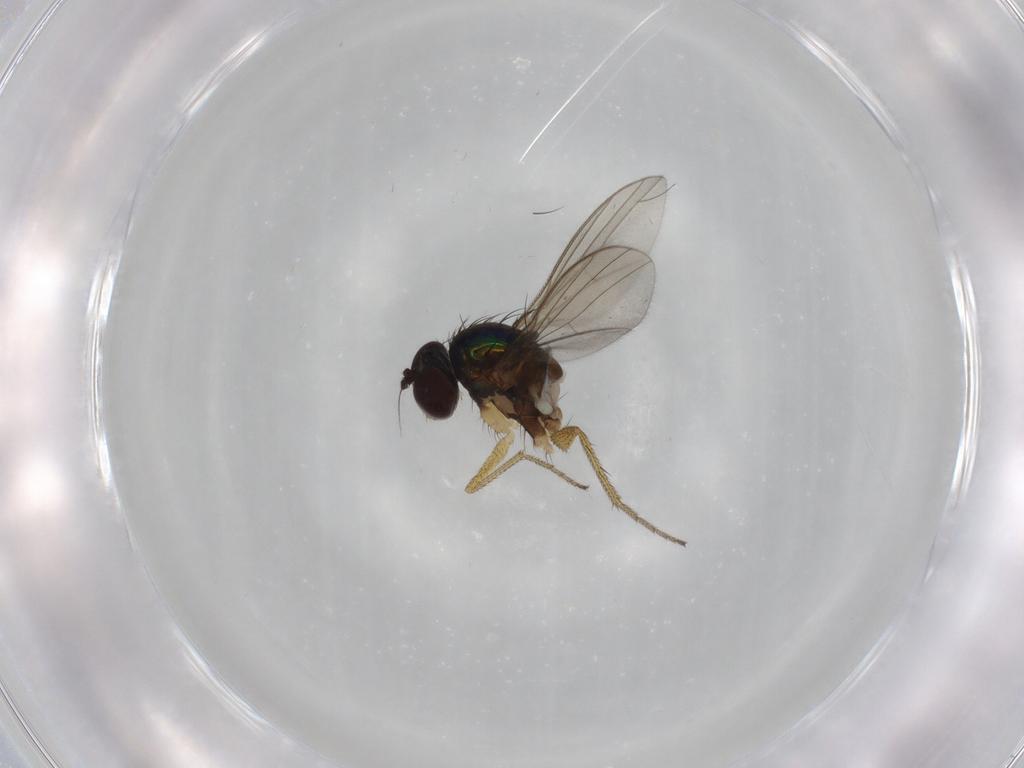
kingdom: Animalia
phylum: Arthropoda
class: Insecta
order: Diptera
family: Dolichopodidae
